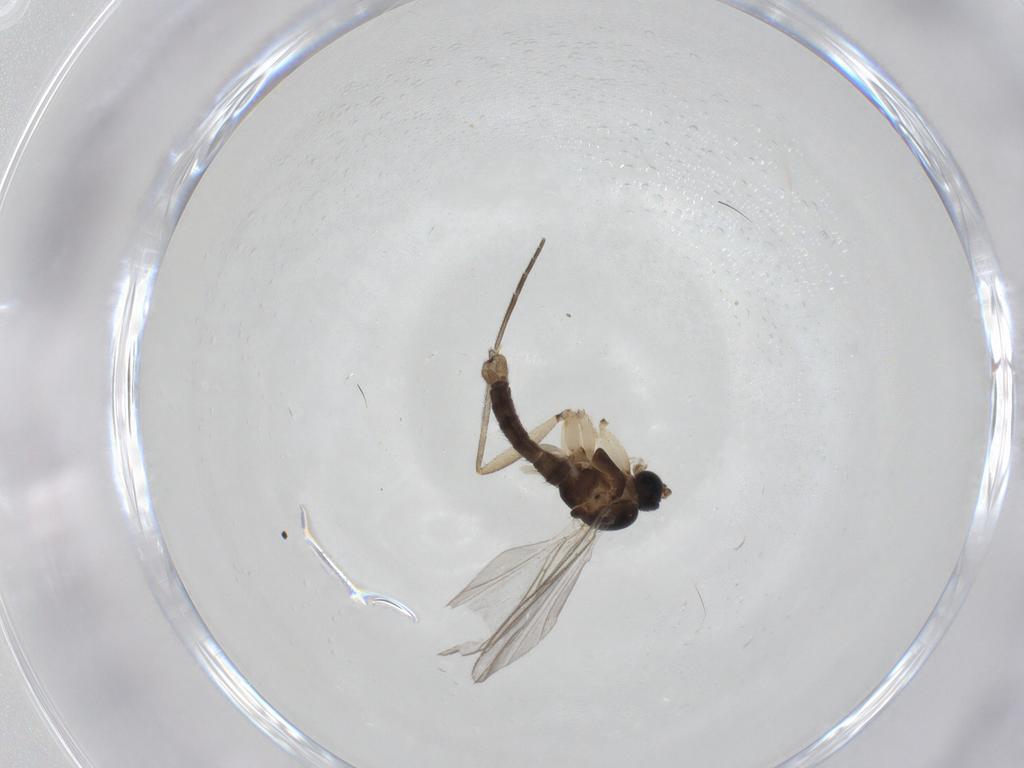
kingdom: Animalia
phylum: Arthropoda
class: Insecta
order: Diptera
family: Sciaridae
